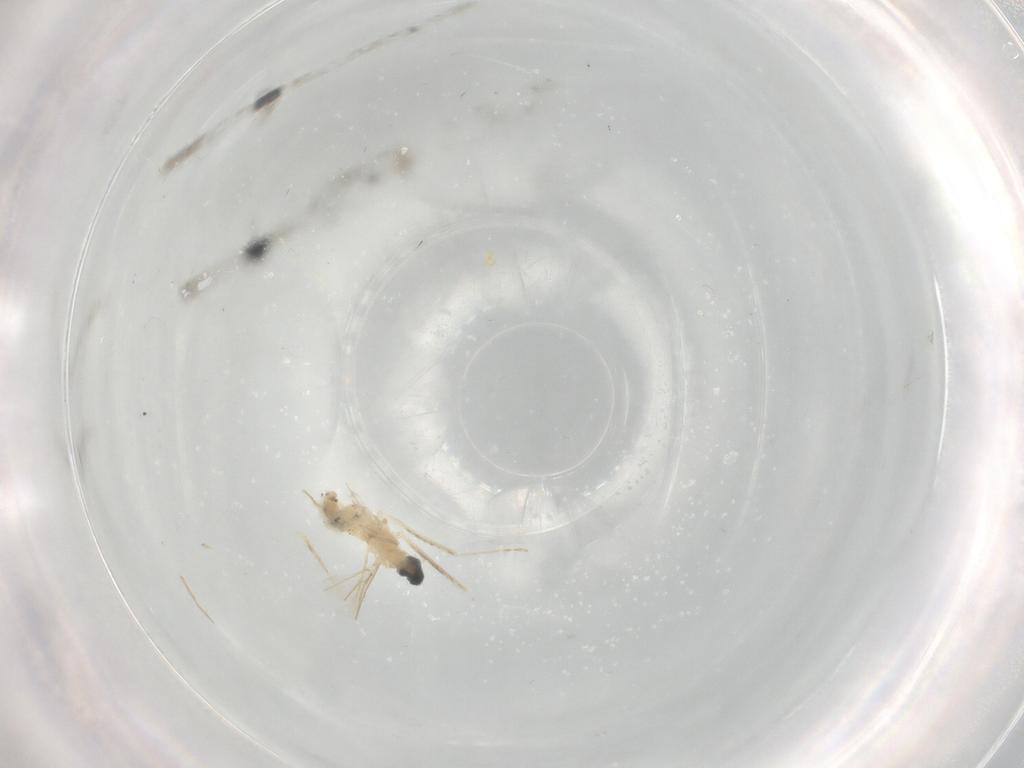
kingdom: Animalia
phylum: Arthropoda
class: Insecta
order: Diptera
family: Cecidomyiidae
